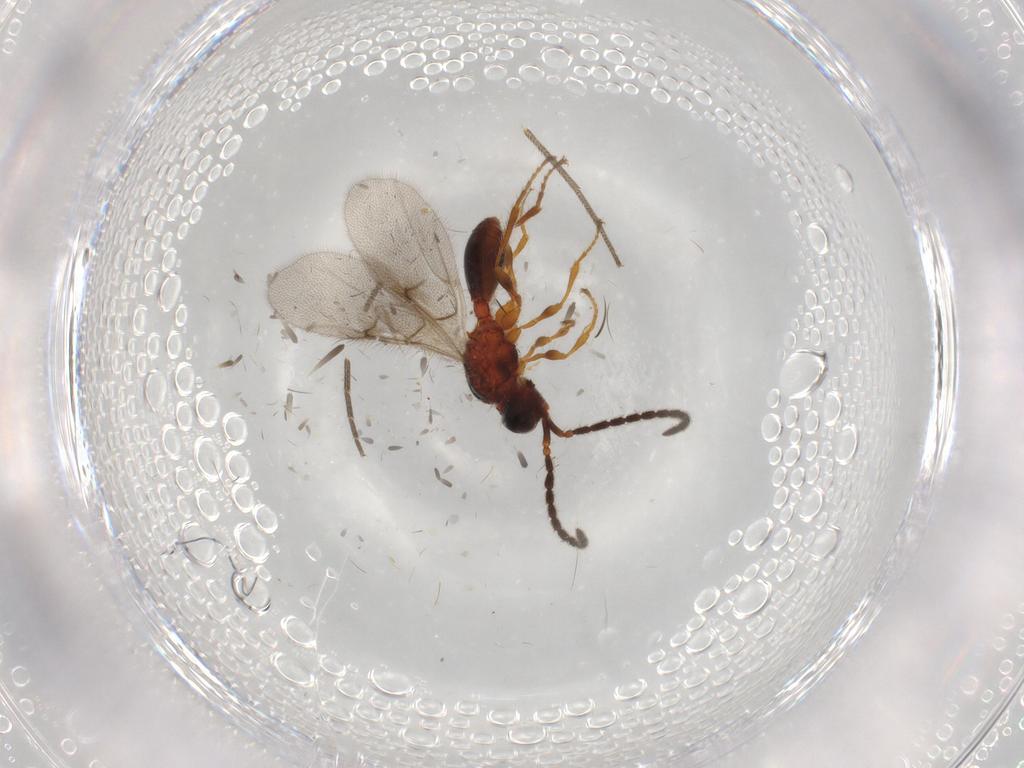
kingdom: Animalia
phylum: Arthropoda
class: Insecta
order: Hymenoptera
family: Diapriidae
